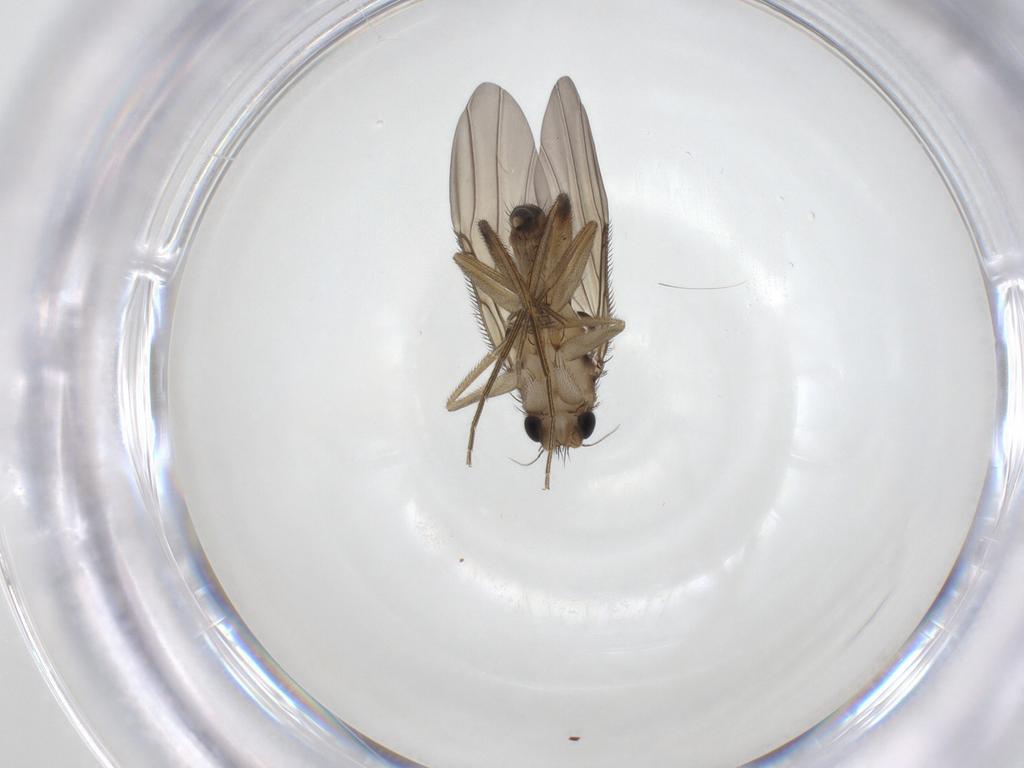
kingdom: Animalia
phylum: Arthropoda
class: Insecta
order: Diptera
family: Phoridae
